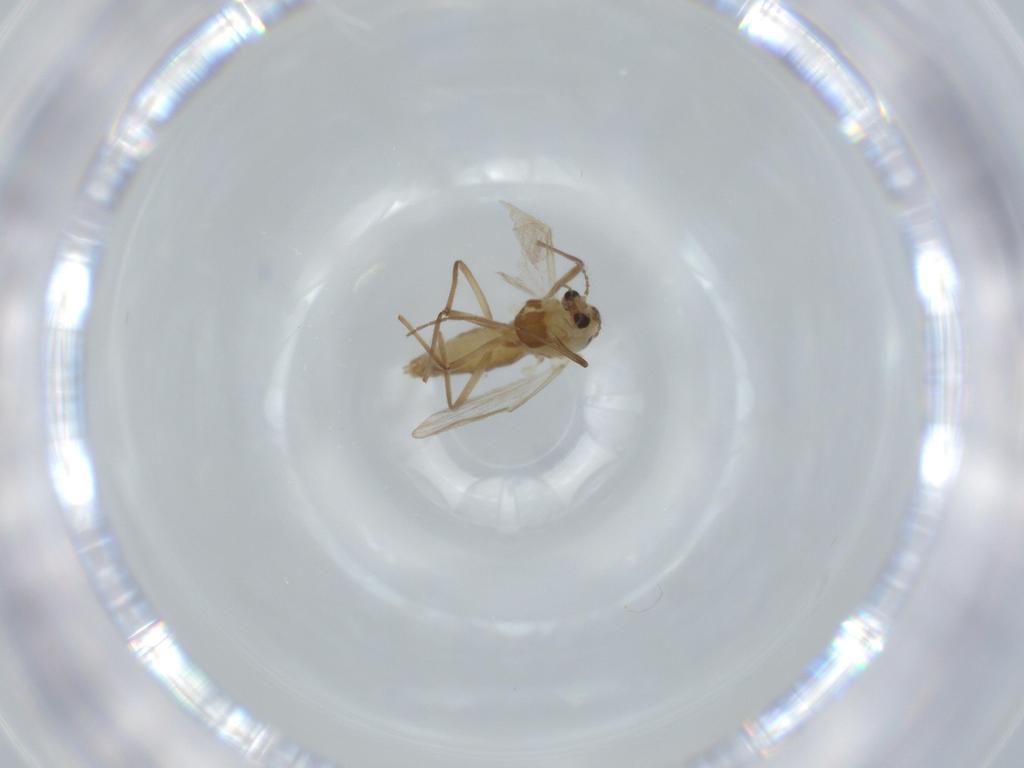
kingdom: Animalia
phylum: Arthropoda
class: Insecta
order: Diptera
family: Chironomidae
